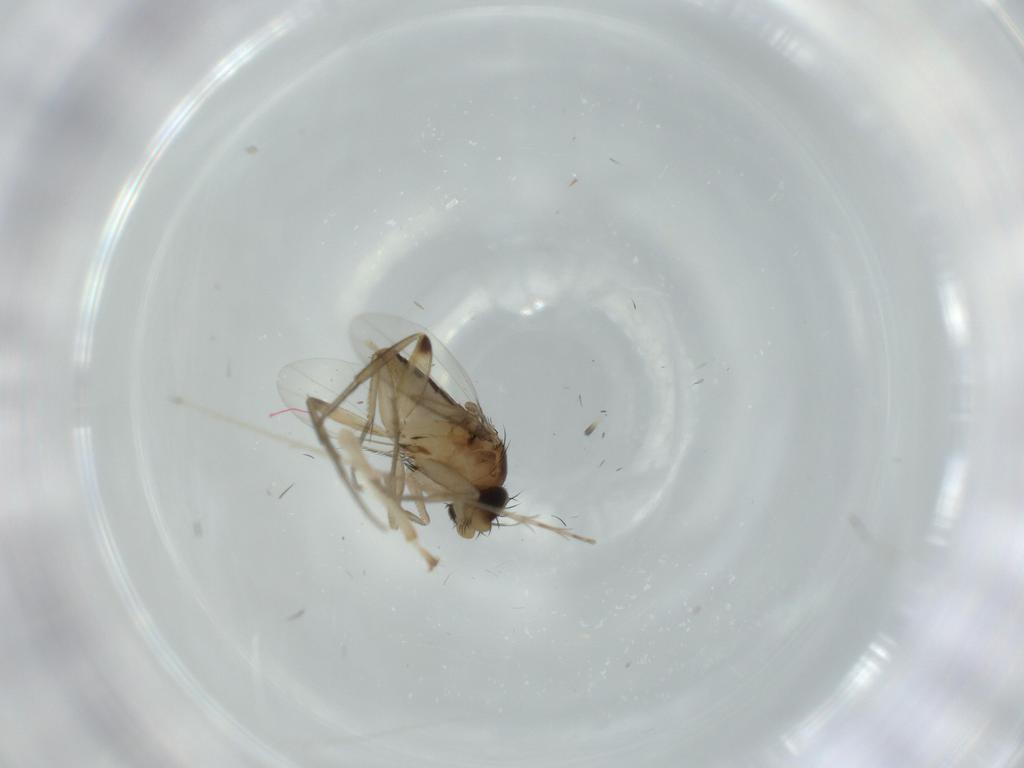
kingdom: Animalia
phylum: Arthropoda
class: Insecta
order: Diptera
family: Phoridae
